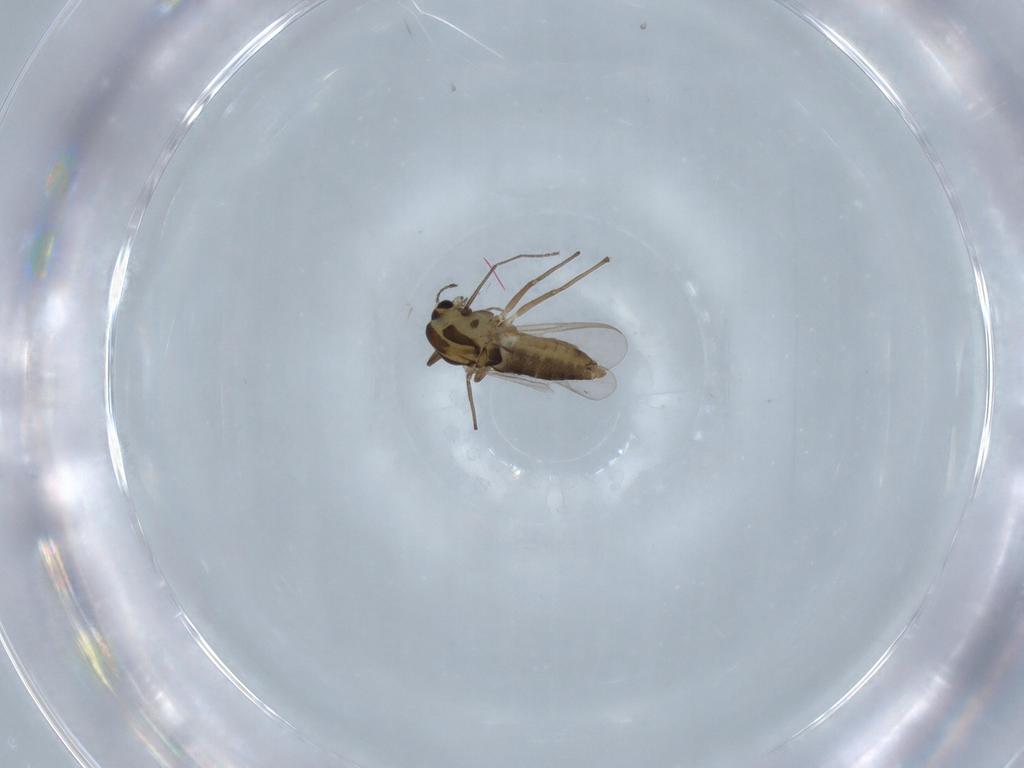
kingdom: Animalia
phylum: Arthropoda
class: Insecta
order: Diptera
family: Chironomidae
